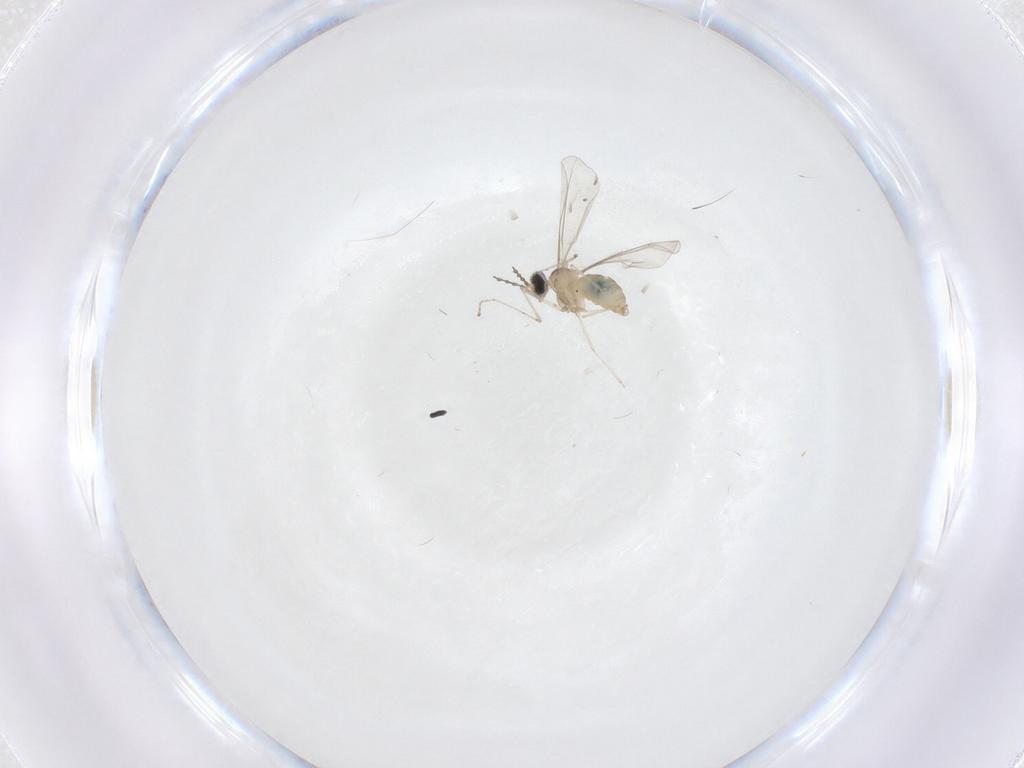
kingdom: Animalia
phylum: Arthropoda
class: Insecta
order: Diptera
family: Cecidomyiidae
